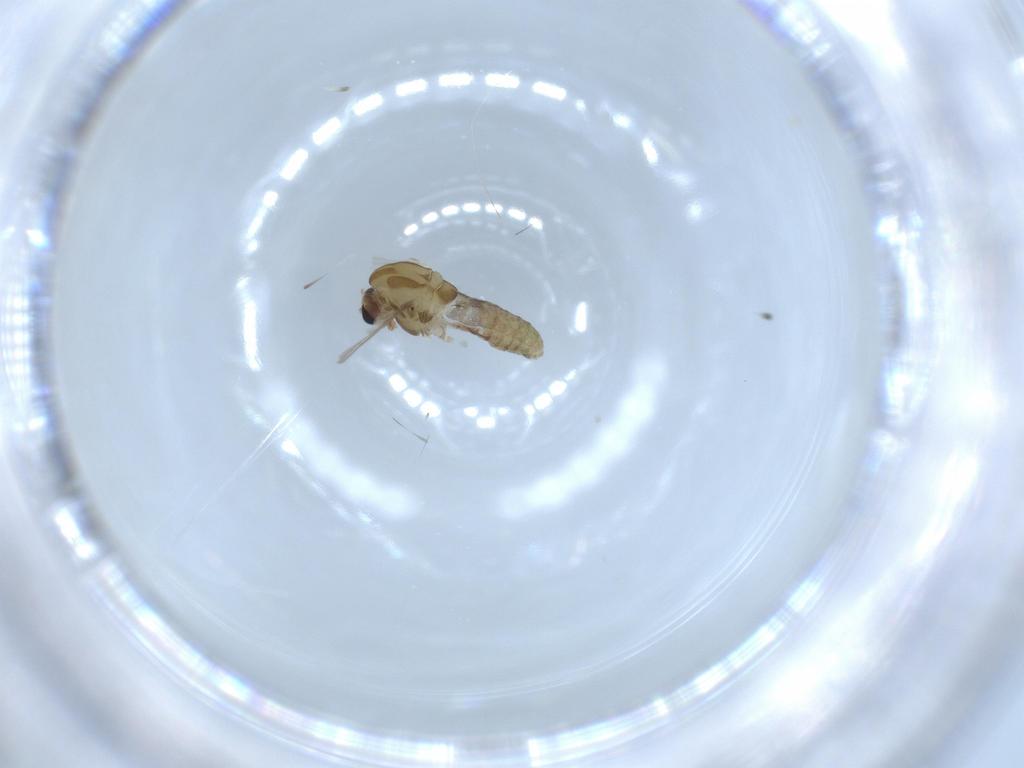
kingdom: Animalia
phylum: Arthropoda
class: Insecta
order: Diptera
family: Chironomidae
